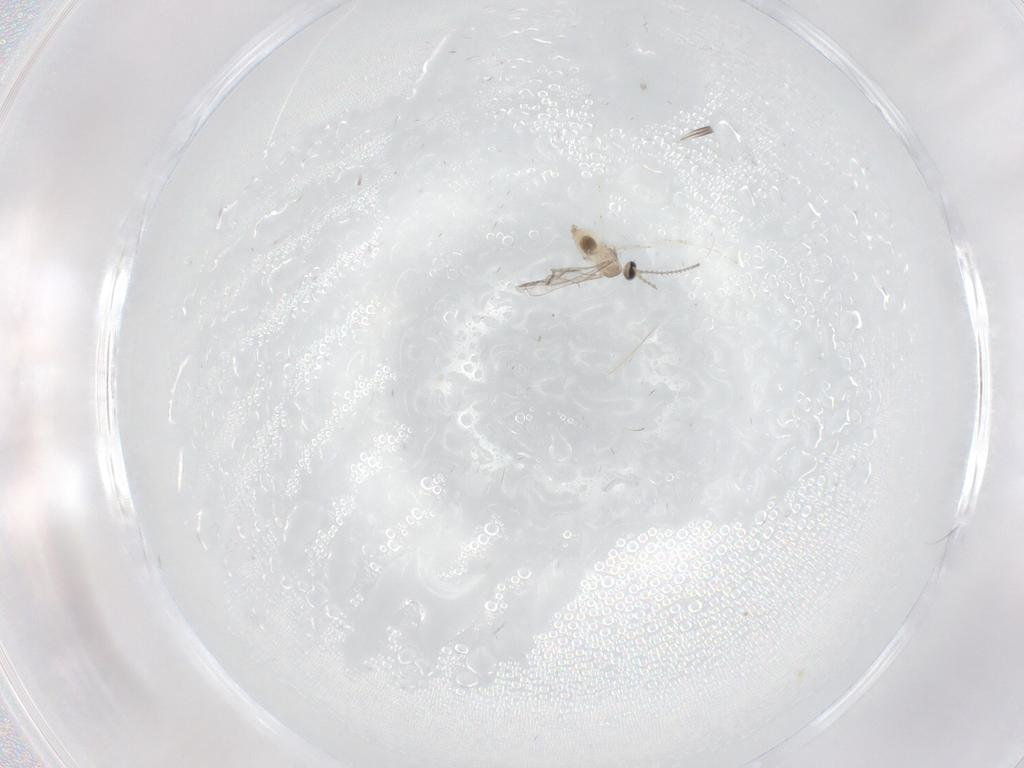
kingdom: Animalia
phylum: Arthropoda
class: Insecta
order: Diptera
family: Cecidomyiidae
